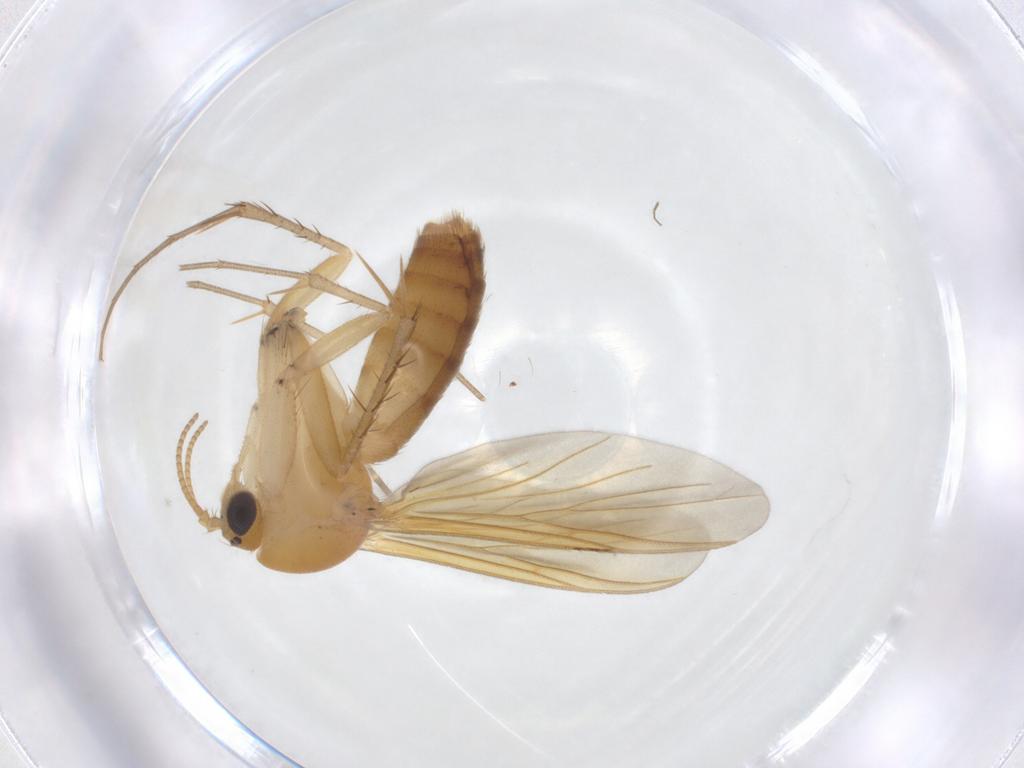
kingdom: Animalia
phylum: Arthropoda
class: Insecta
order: Diptera
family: Mycetophilidae
